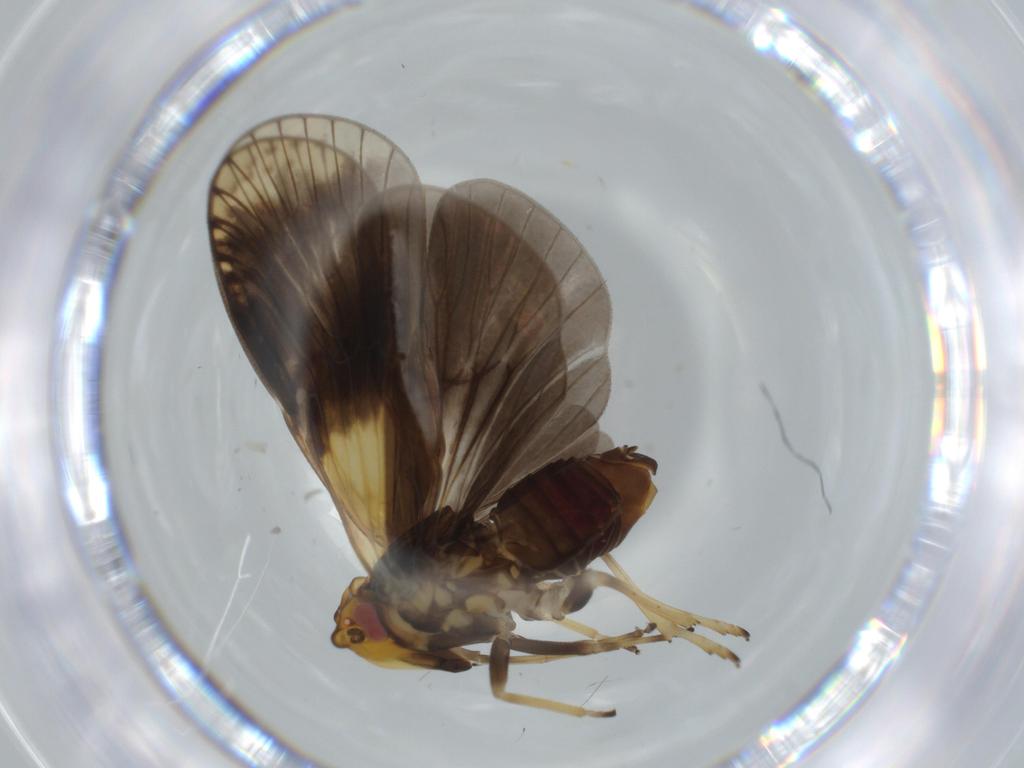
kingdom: Animalia
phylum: Arthropoda
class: Insecta
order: Hemiptera
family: Cixiidae
